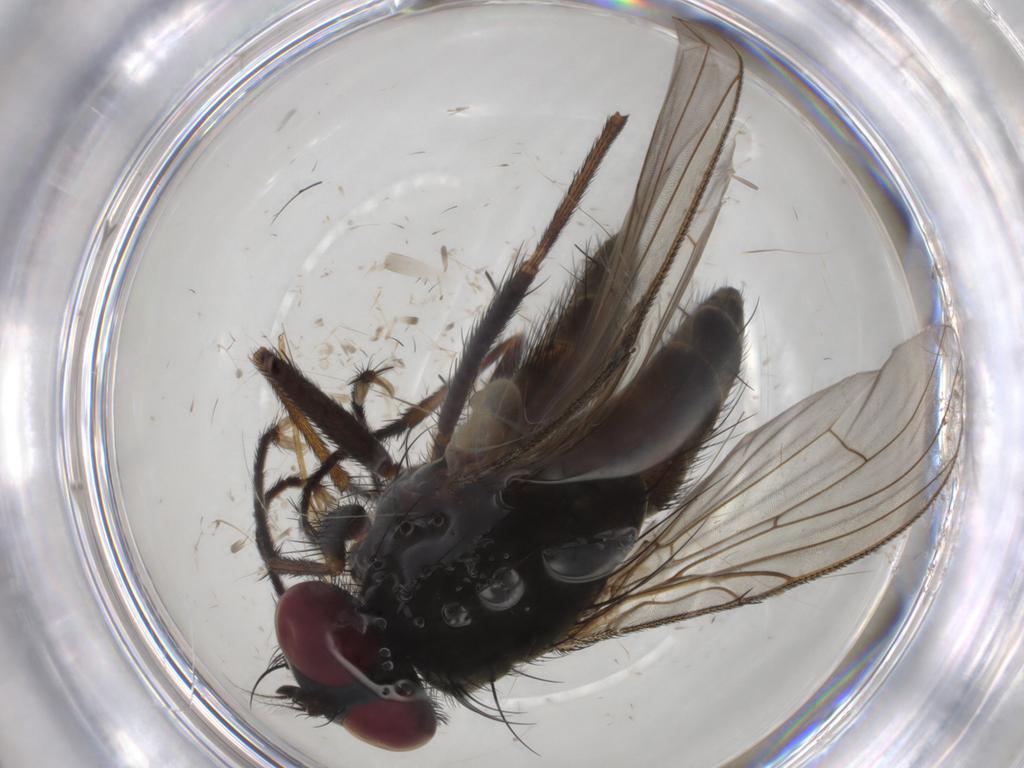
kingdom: Animalia
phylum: Arthropoda
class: Insecta
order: Diptera
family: Muscidae
